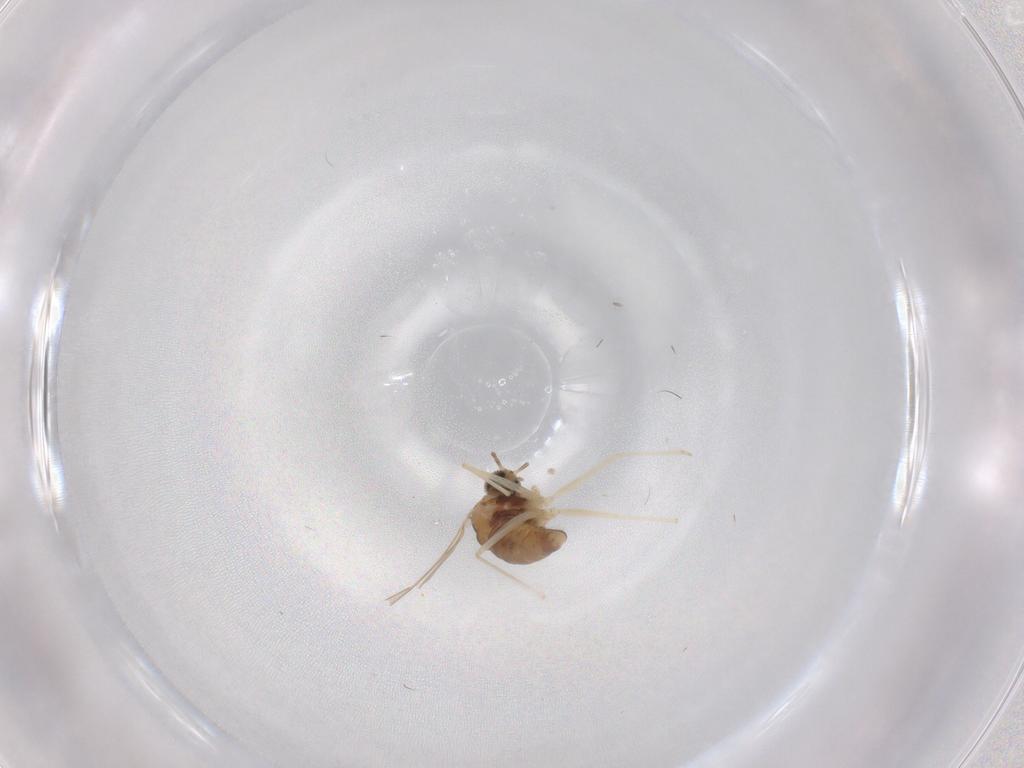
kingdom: Animalia
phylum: Arthropoda
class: Insecta
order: Diptera
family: Cecidomyiidae
